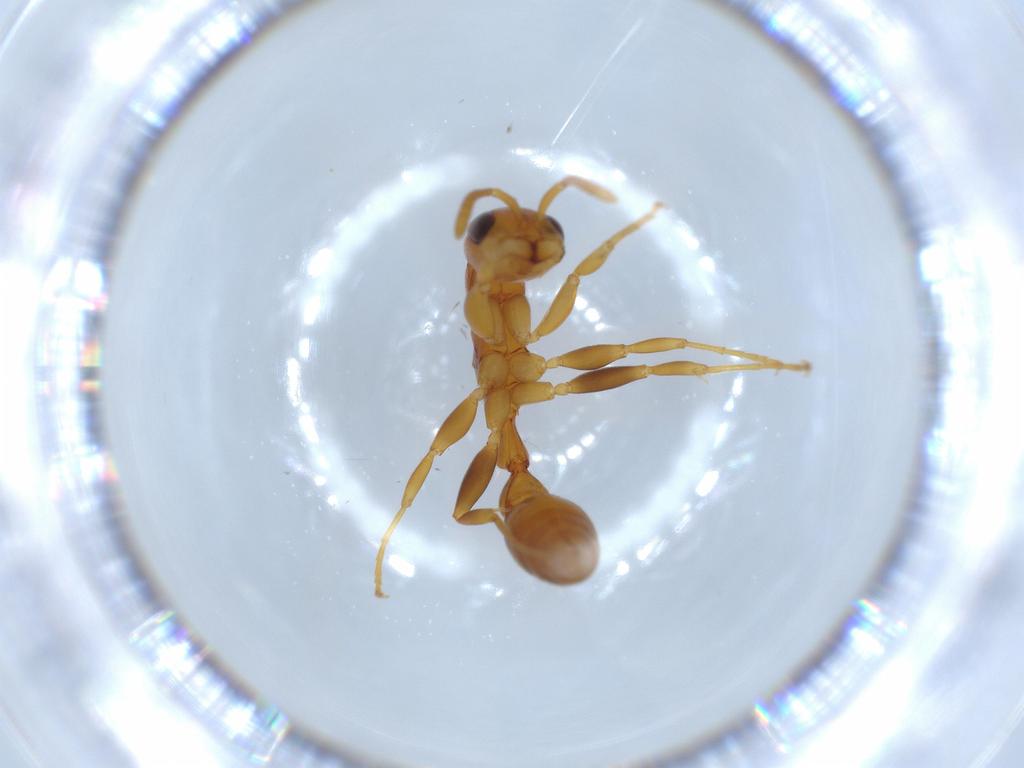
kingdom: Animalia
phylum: Arthropoda
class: Insecta
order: Hymenoptera
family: Formicidae
